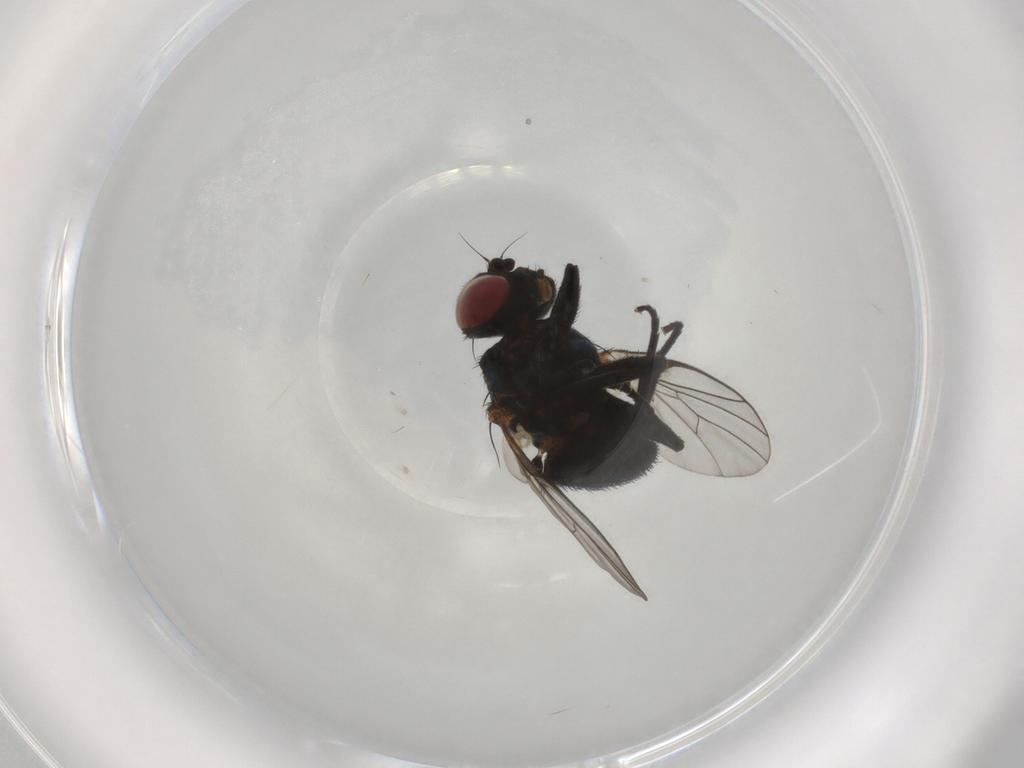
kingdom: Animalia
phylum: Arthropoda
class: Insecta
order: Diptera
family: Agromyzidae
